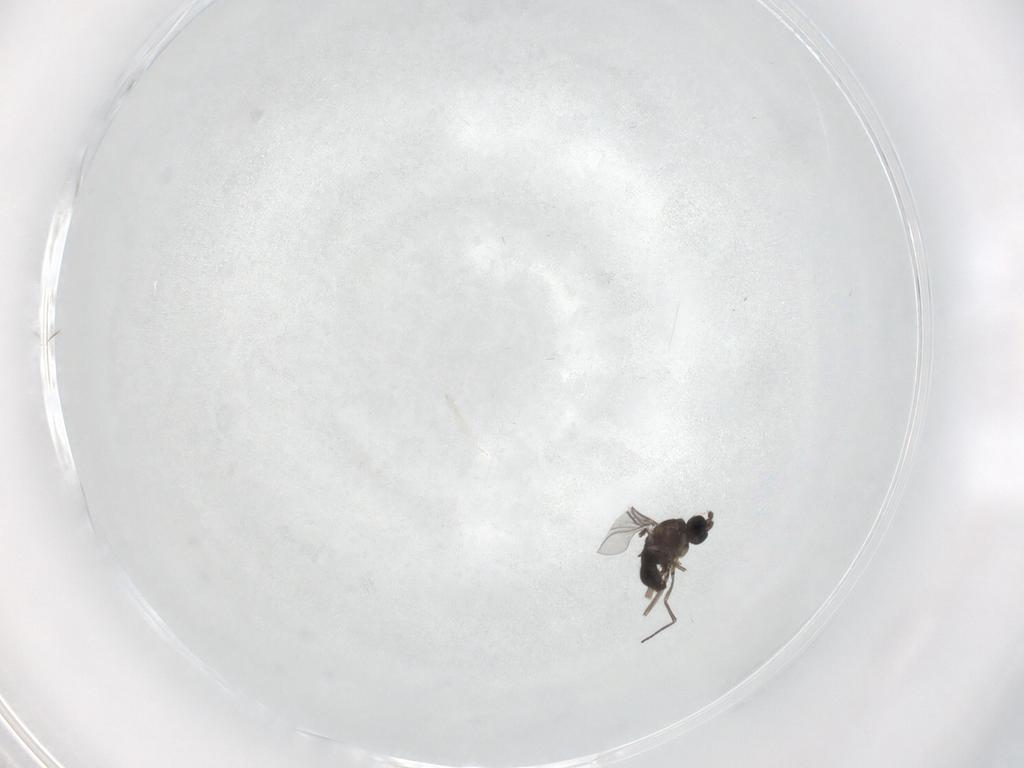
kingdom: Animalia
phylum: Arthropoda
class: Insecta
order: Diptera
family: Sciaridae
